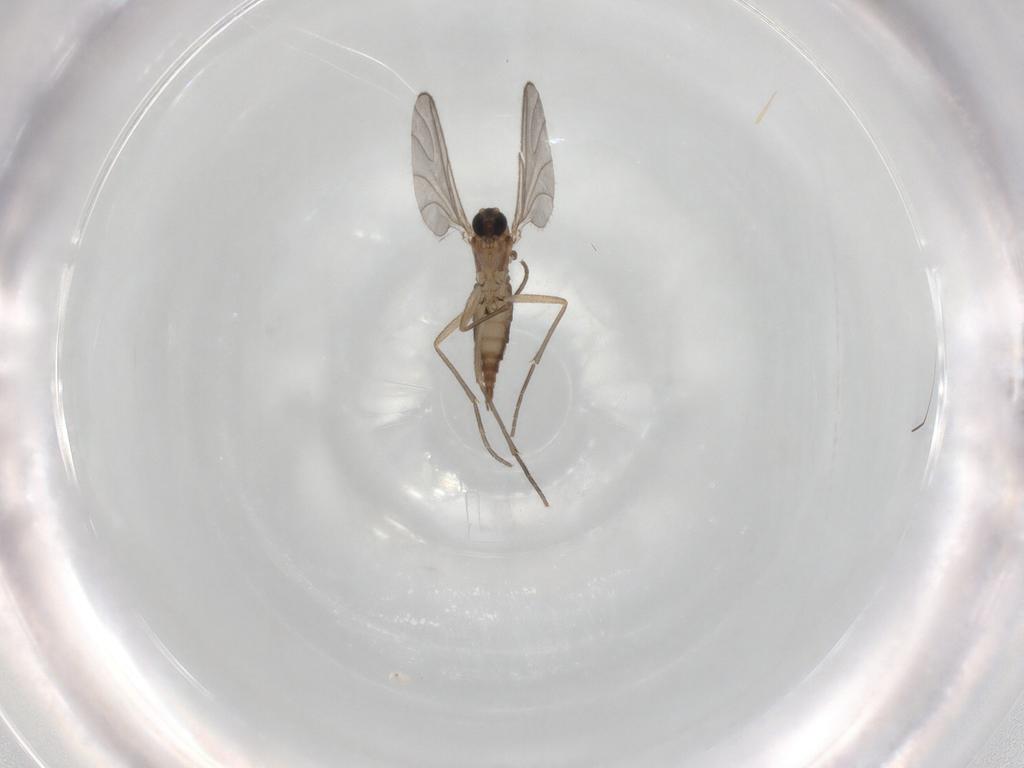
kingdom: Animalia
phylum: Arthropoda
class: Insecta
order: Diptera
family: Sciaridae
